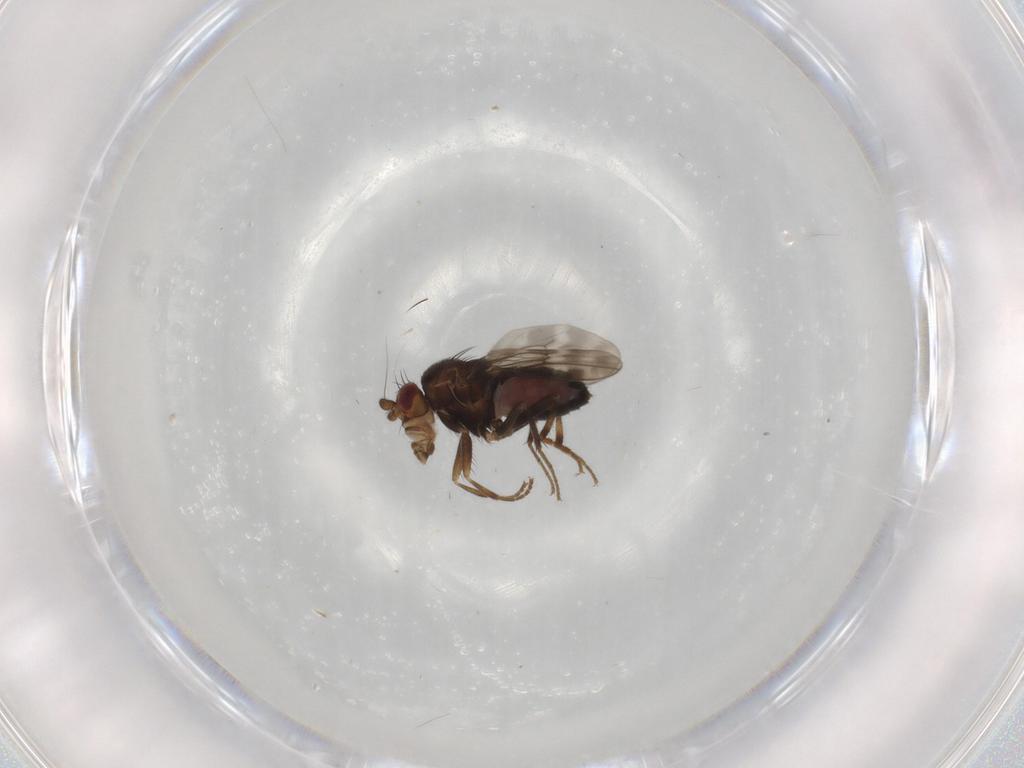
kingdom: Animalia
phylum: Arthropoda
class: Insecta
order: Diptera
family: Sphaeroceridae
